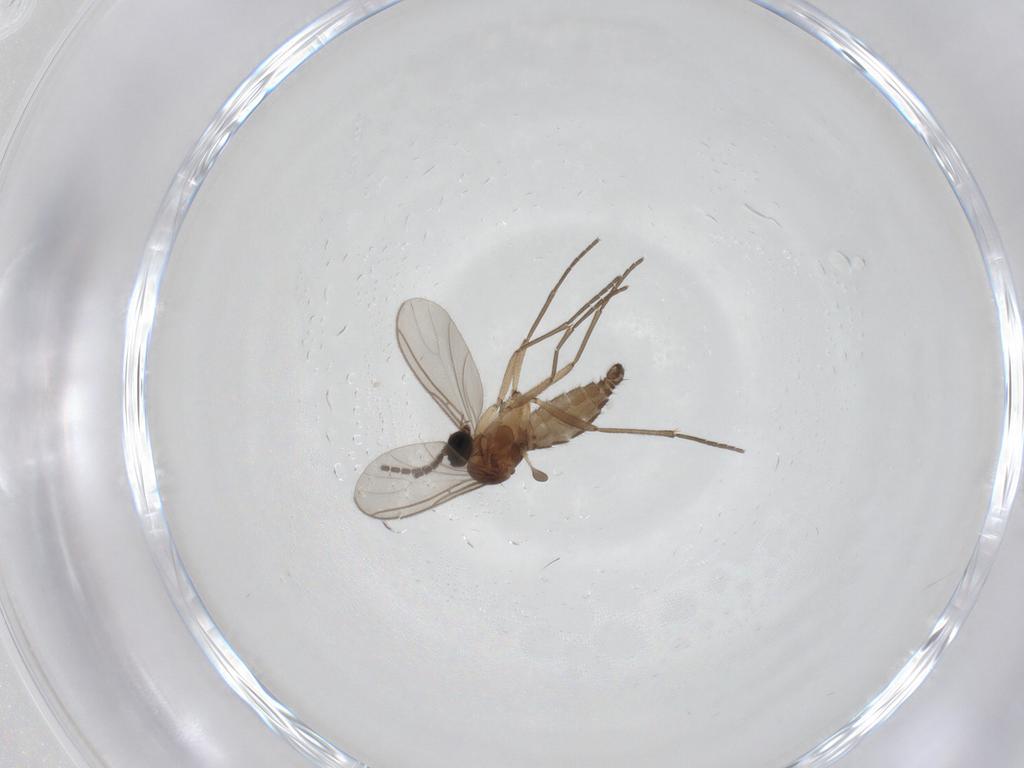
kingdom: Animalia
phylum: Arthropoda
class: Insecta
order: Diptera
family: Sciaridae
